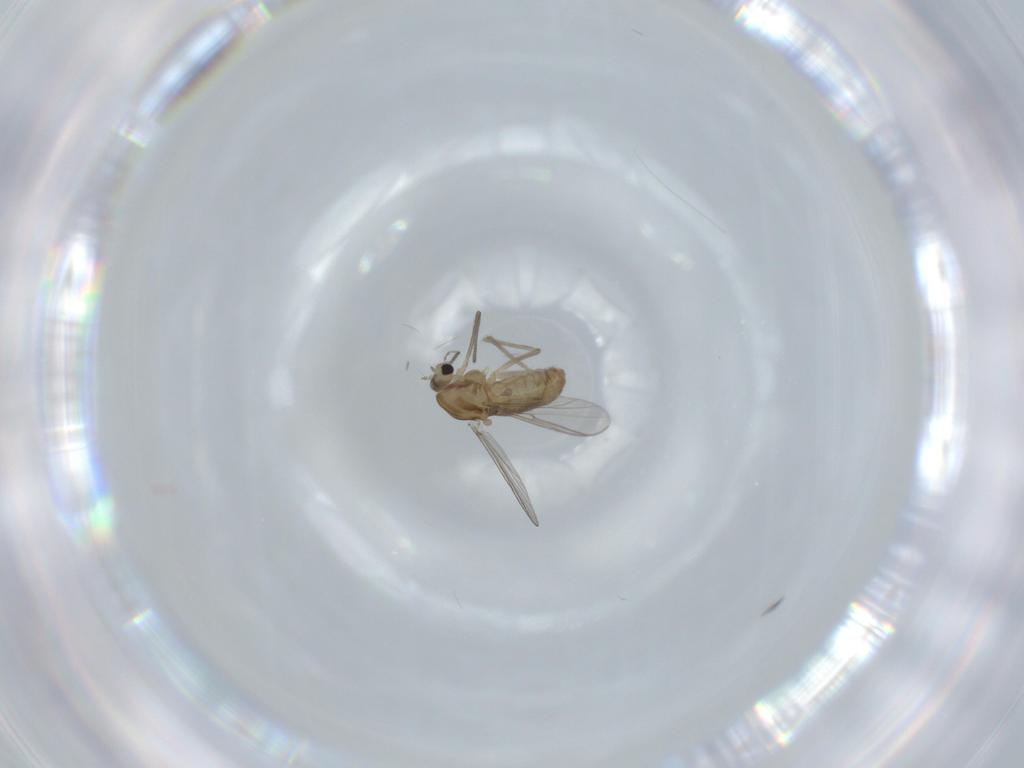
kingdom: Animalia
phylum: Arthropoda
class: Insecta
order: Diptera
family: Chironomidae
